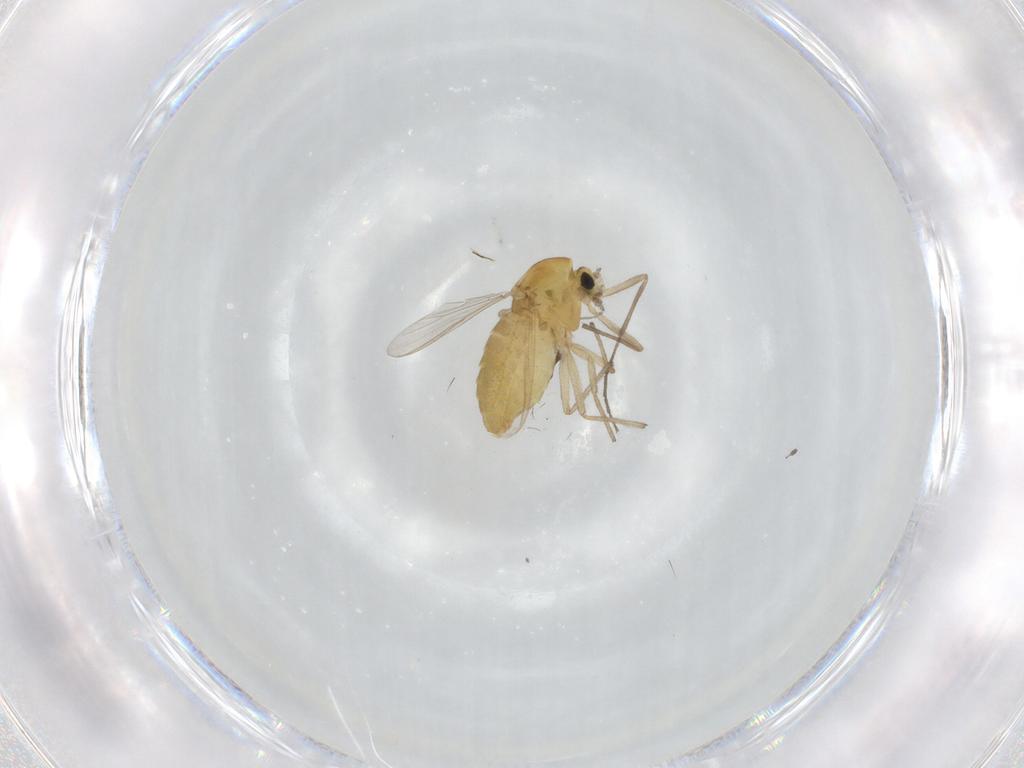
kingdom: Animalia
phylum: Arthropoda
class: Insecta
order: Diptera
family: Chironomidae
